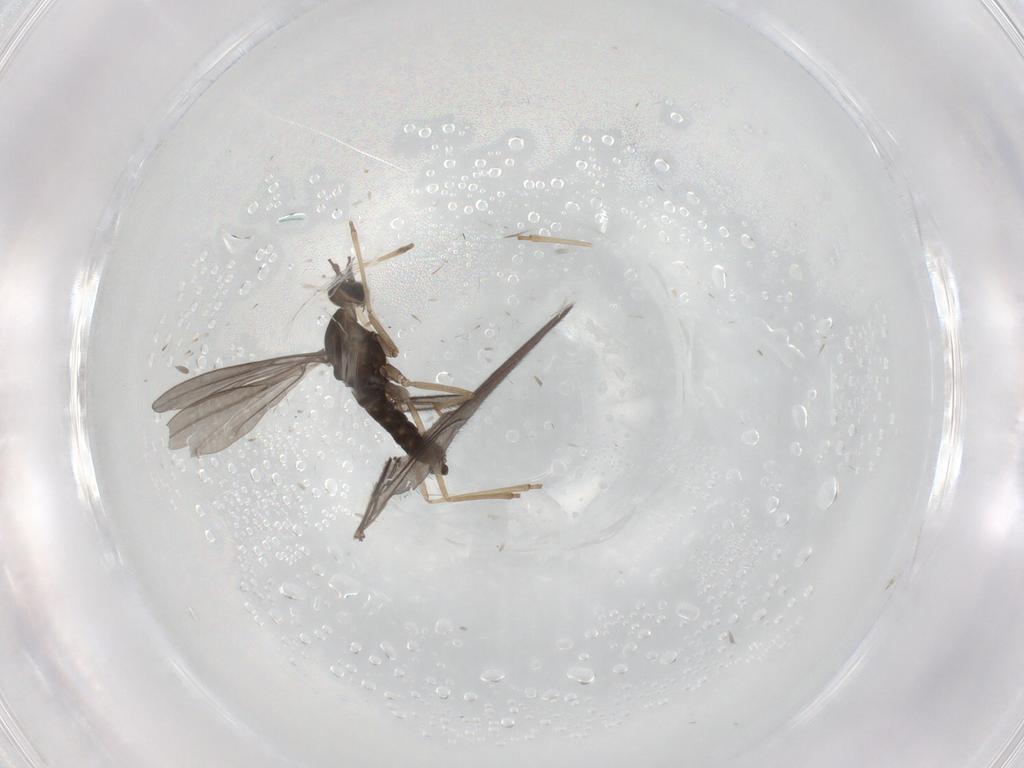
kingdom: Animalia
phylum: Arthropoda
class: Insecta
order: Diptera
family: Cecidomyiidae
